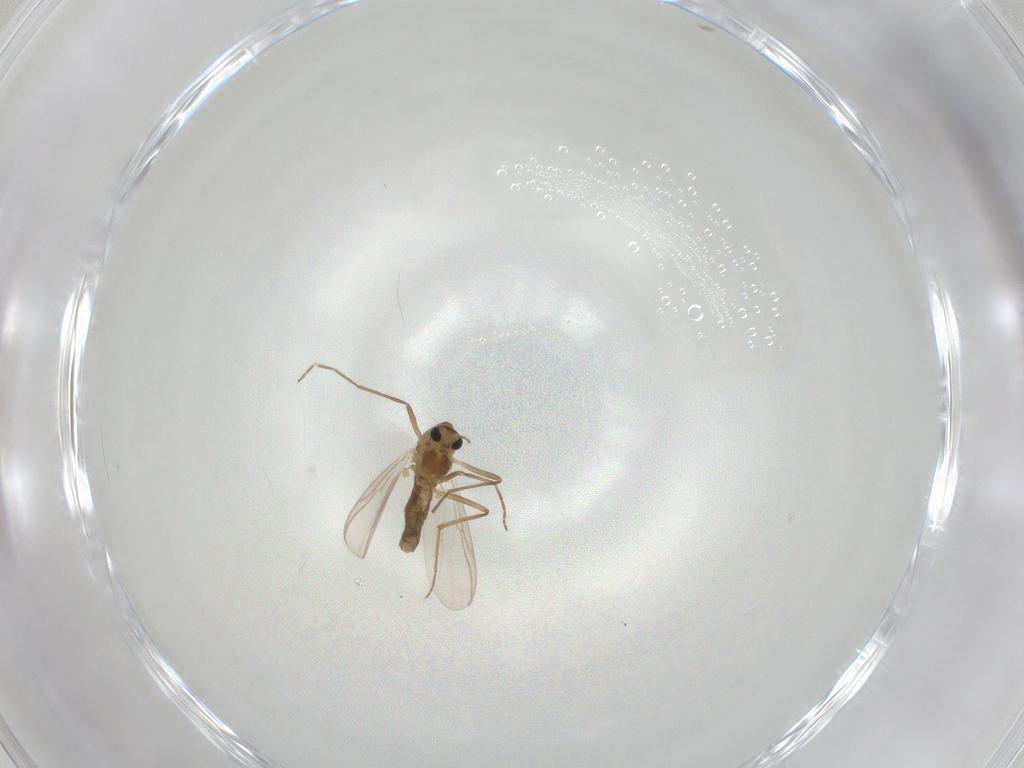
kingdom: Animalia
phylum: Arthropoda
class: Insecta
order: Diptera
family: Chironomidae
